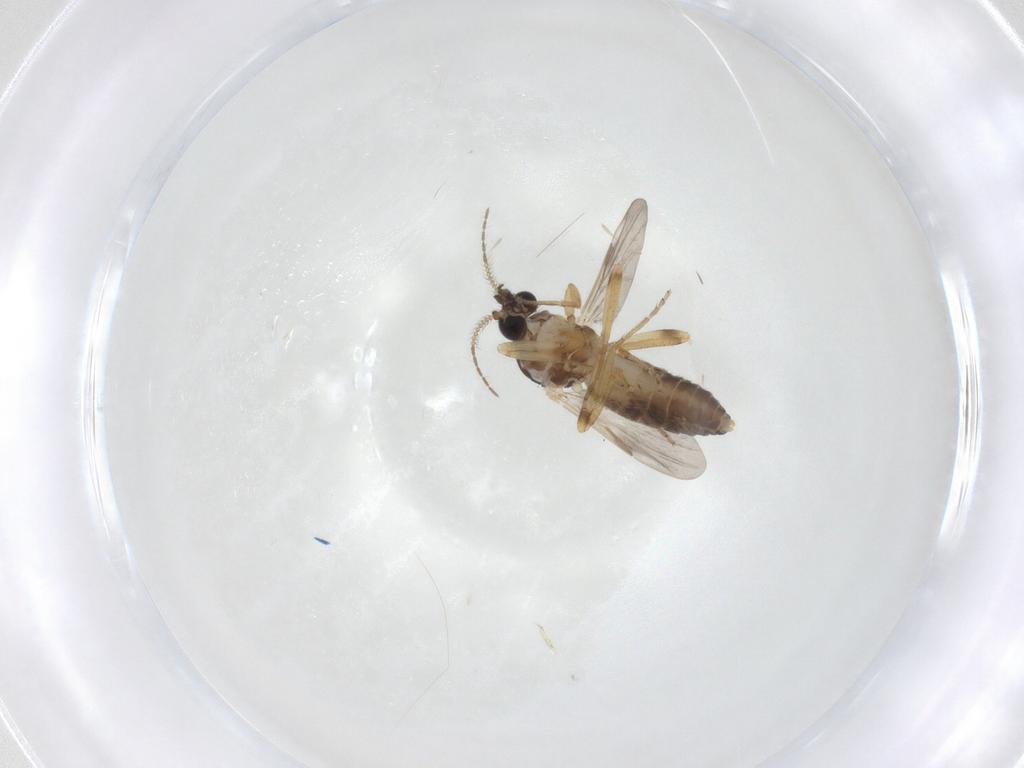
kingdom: Animalia
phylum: Arthropoda
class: Insecta
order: Diptera
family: Ceratopogonidae
